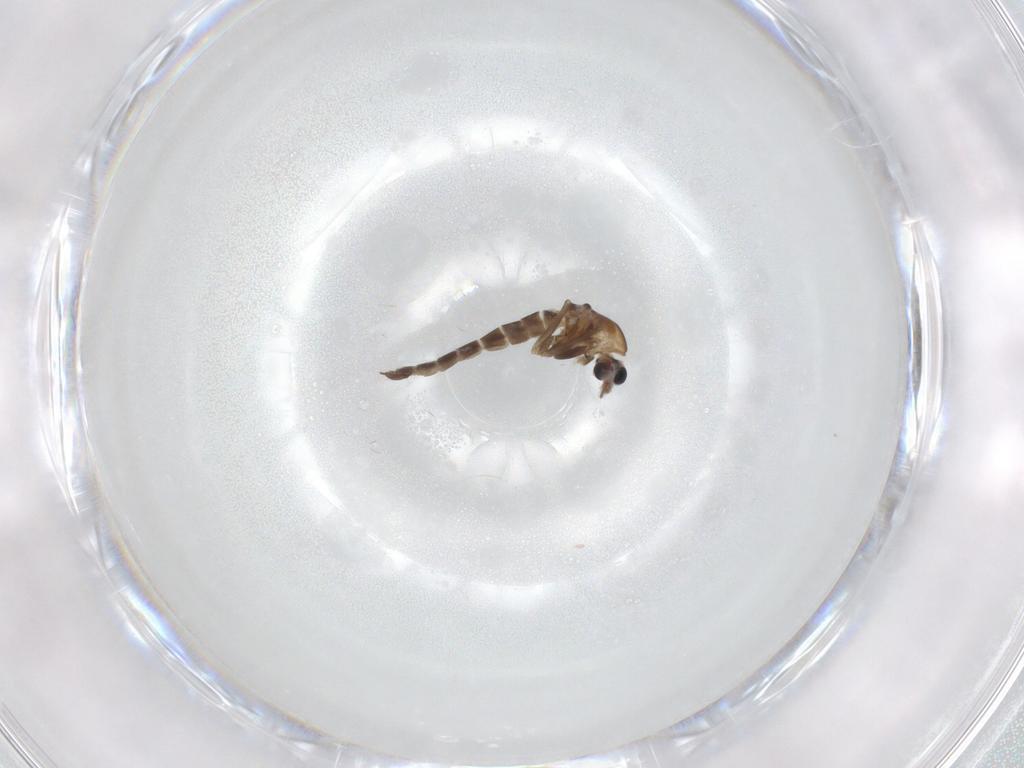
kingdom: Animalia
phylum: Arthropoda
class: Insecta
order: Diptera
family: Chironomidae
